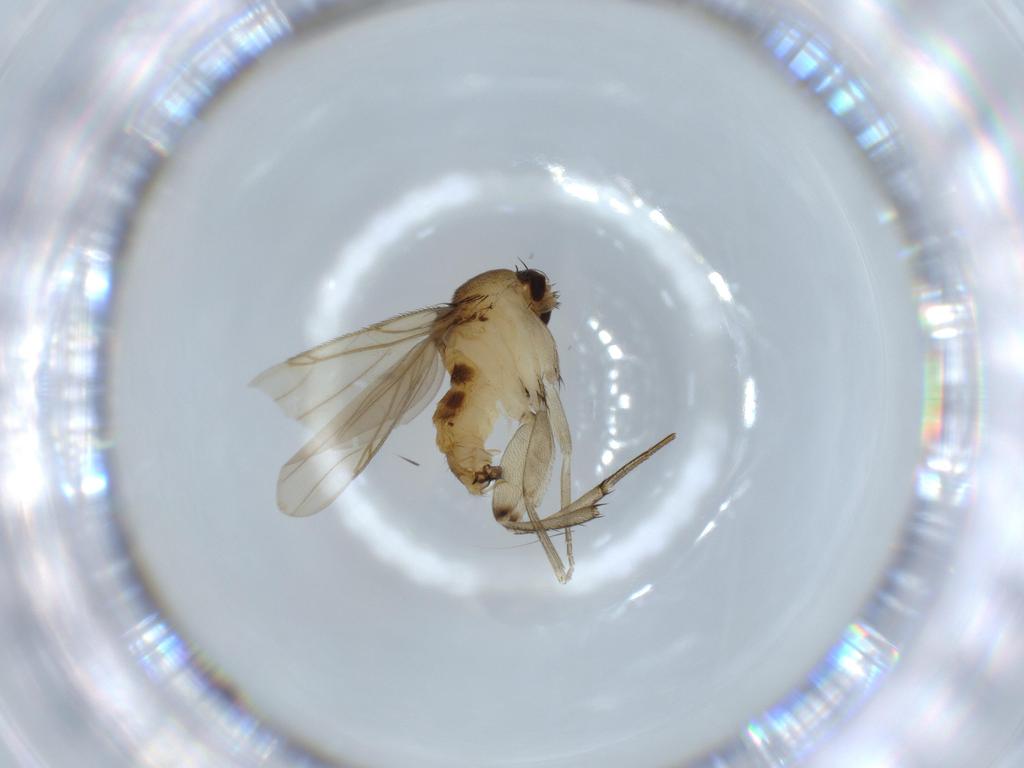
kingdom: Animalia
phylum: Arthropoda
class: Insecta
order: Diptera
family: Phoridae
